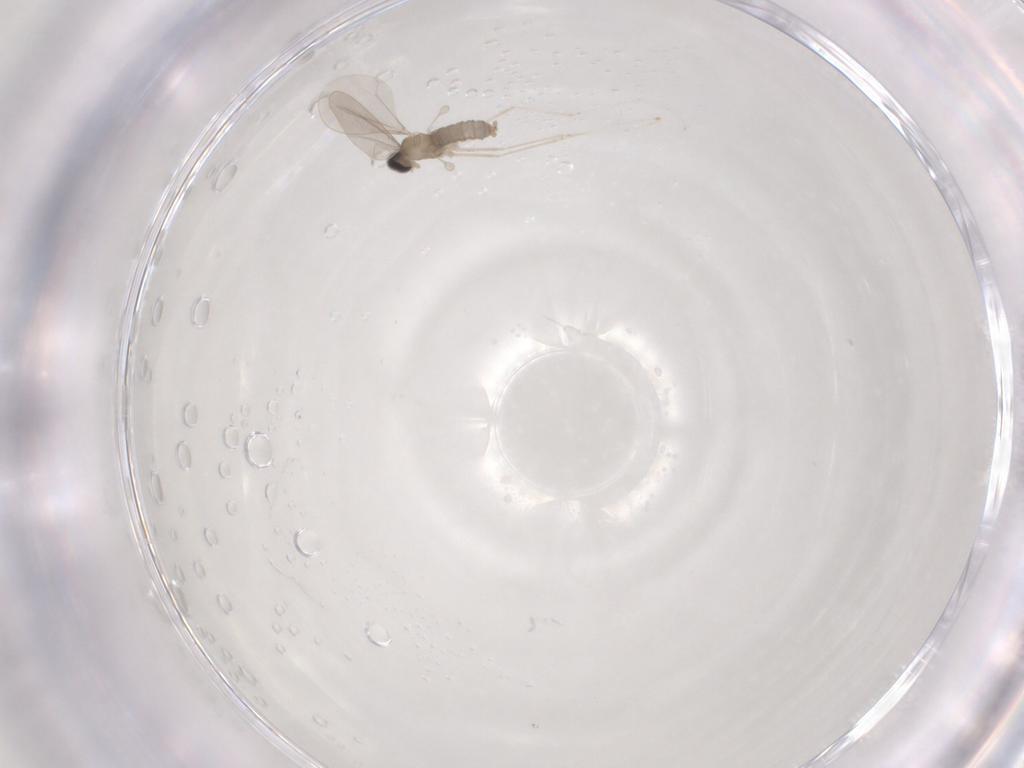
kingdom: Animalia
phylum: Arthropoda
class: Insecta
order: Diptera
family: Cecidomyiidae
